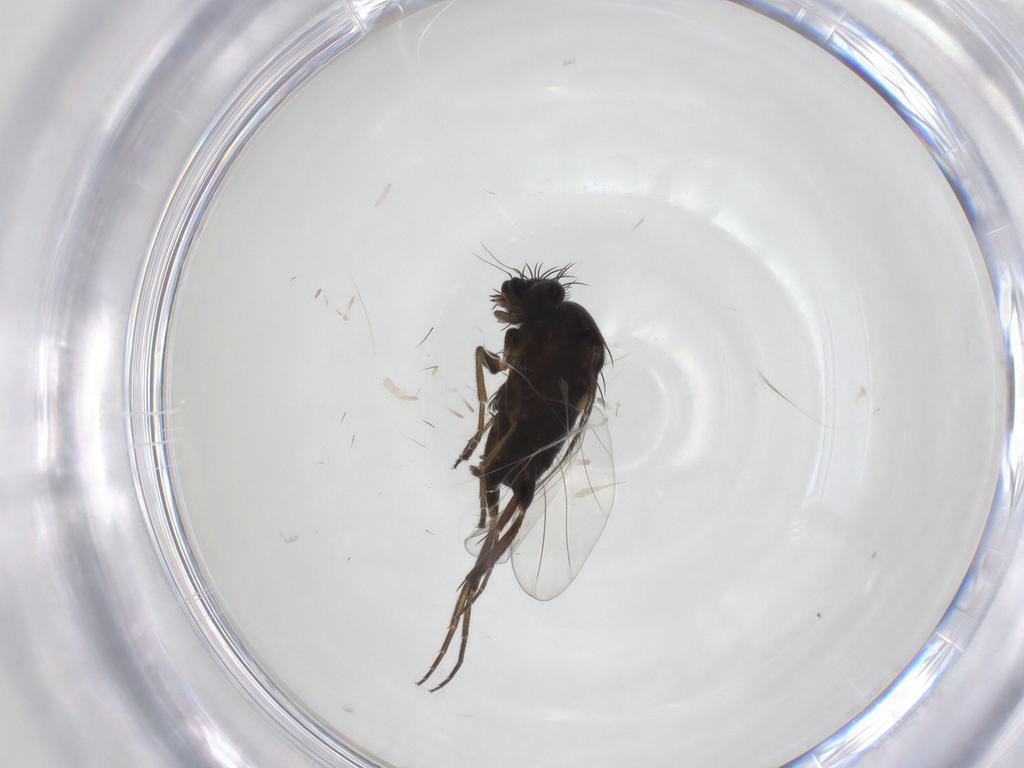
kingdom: Animalia
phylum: Arthropoda
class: Insecta
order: Diptera
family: Phoridae
